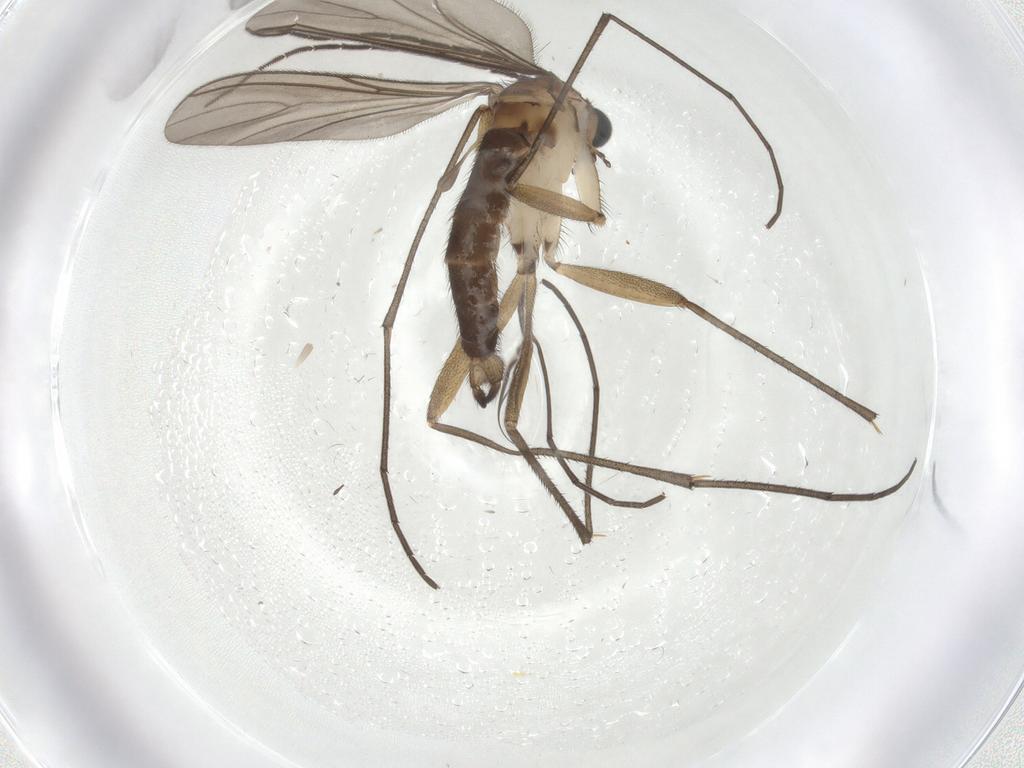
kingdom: Animalia
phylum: Arthropoda
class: Insecta
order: Diptera
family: Sciaridae
